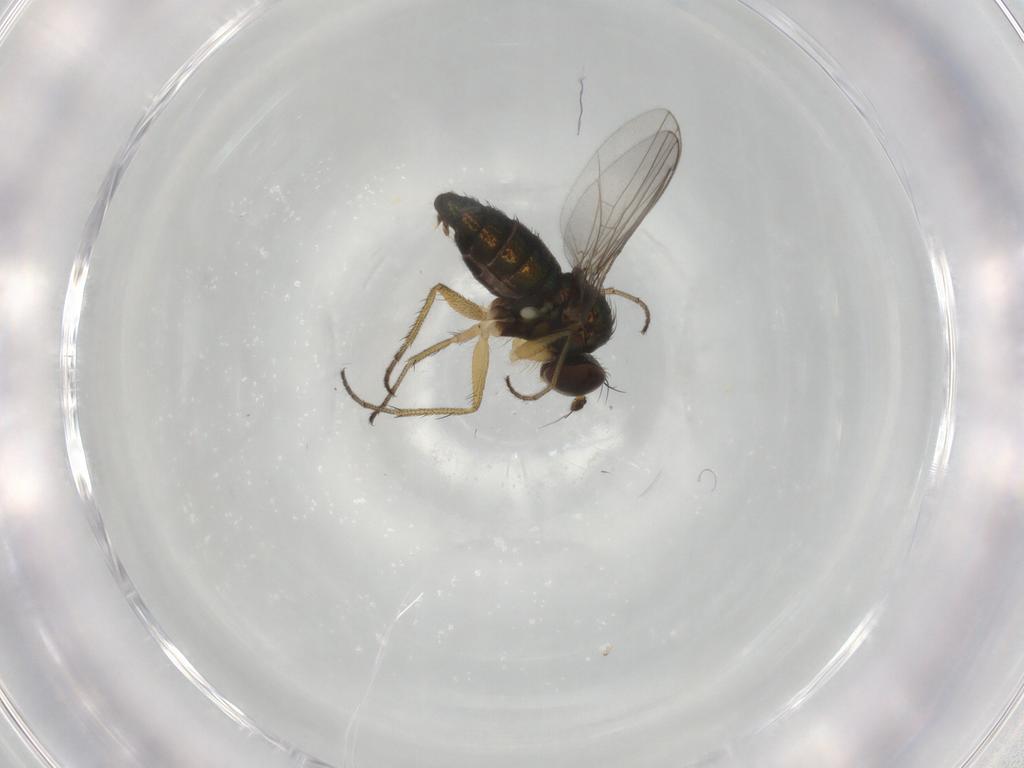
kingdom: Animalia
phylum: Arthropoda
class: Insecta
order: Diptera
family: Dolichopodidae
